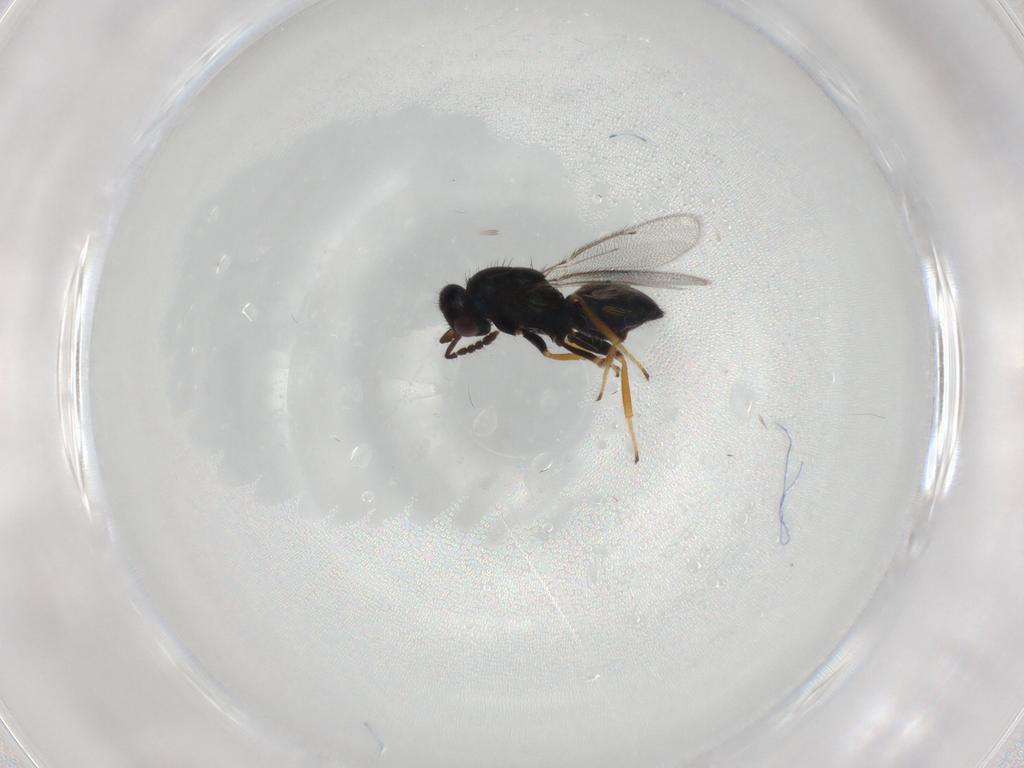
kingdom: Animalia
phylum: Arthropoda
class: Insecta
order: Hymenoptera
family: Eulophidae
